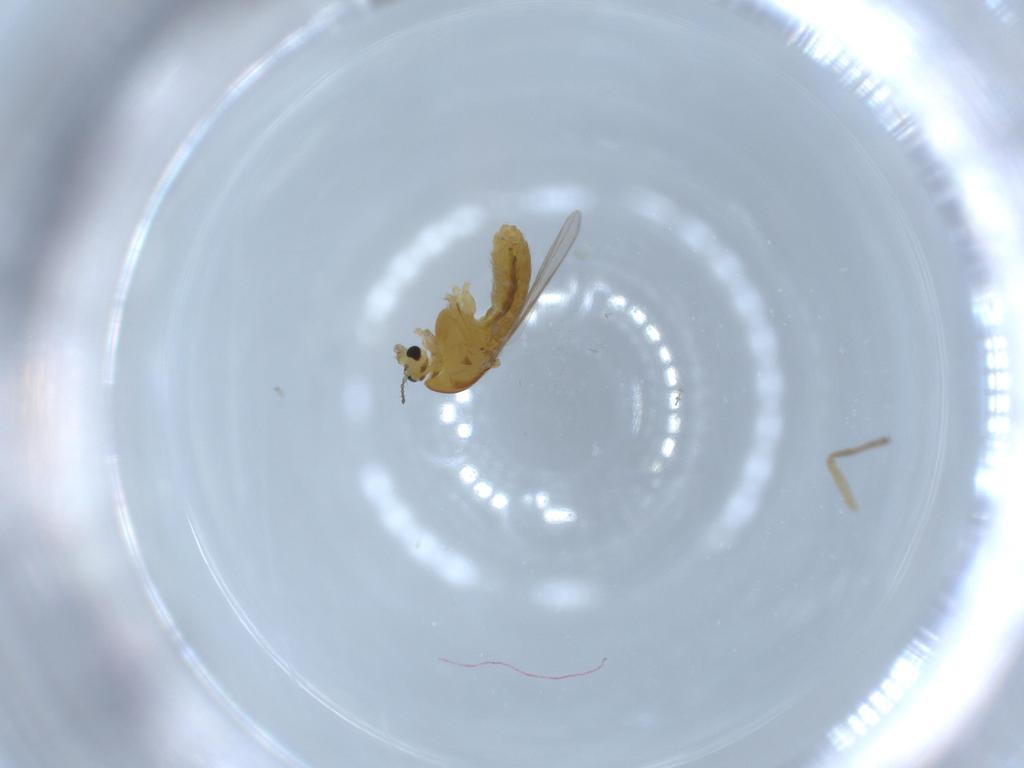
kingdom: Animalia
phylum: Arthropoda
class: Insecta
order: Diptera
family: Chironomidae
